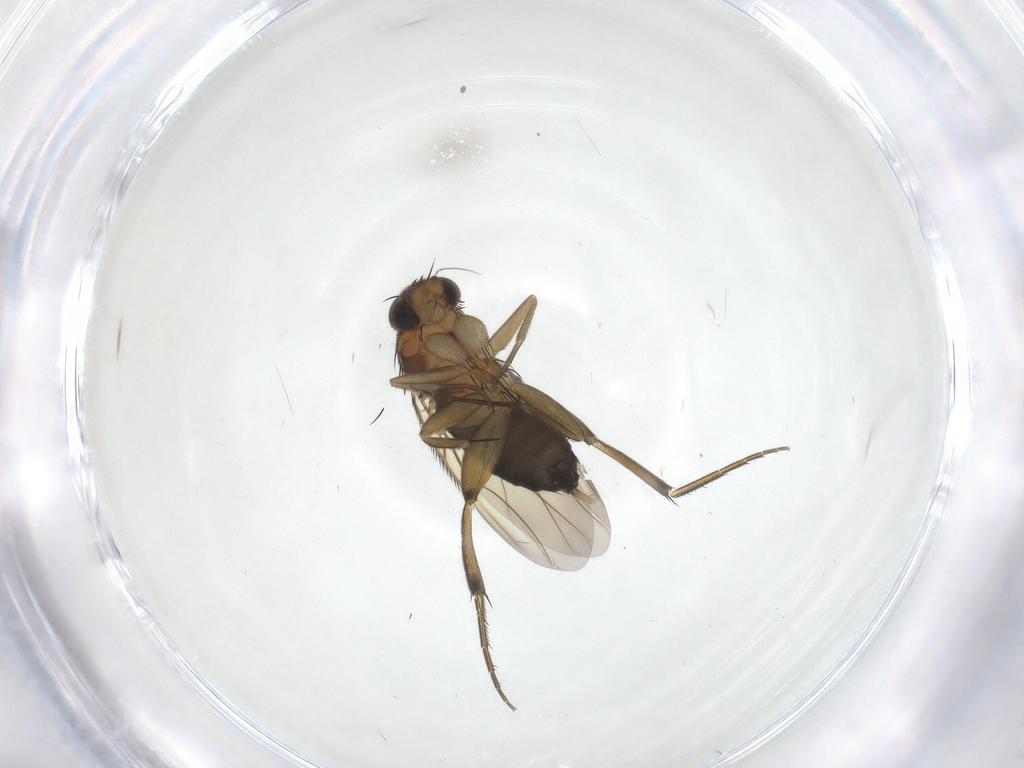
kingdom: Animalia
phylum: Arthropoda
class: Insecta
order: Diptera
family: Phoridae
